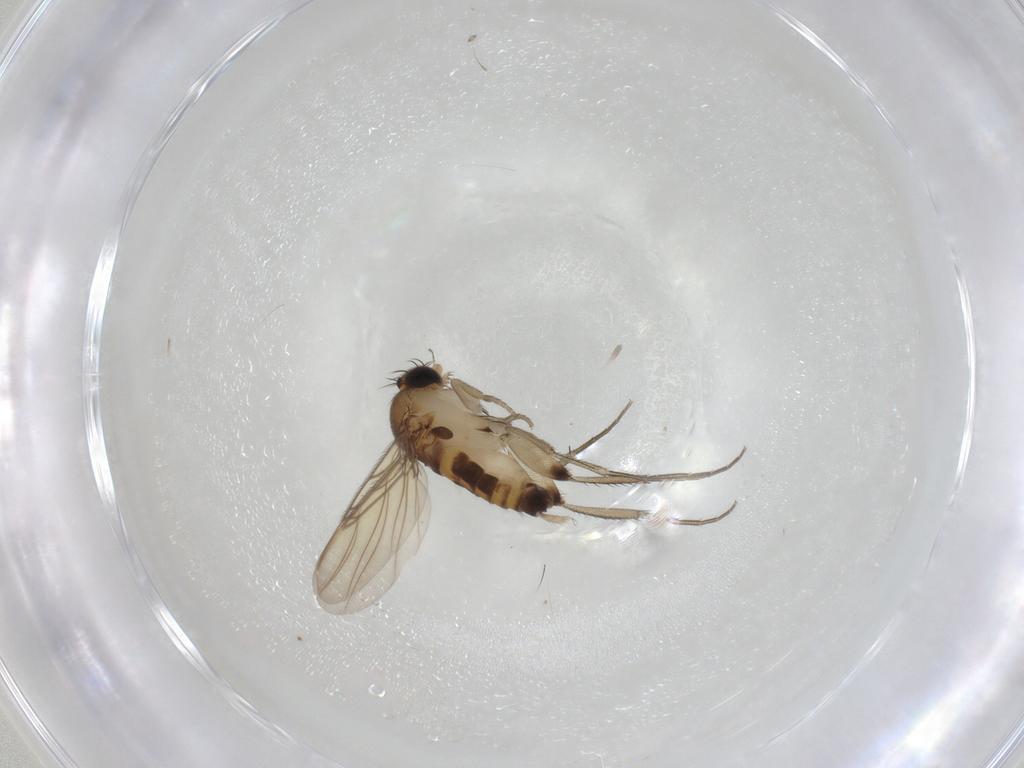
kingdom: Animalia
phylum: Arthropoda
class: Insecta
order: Diptera
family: Phoridae
